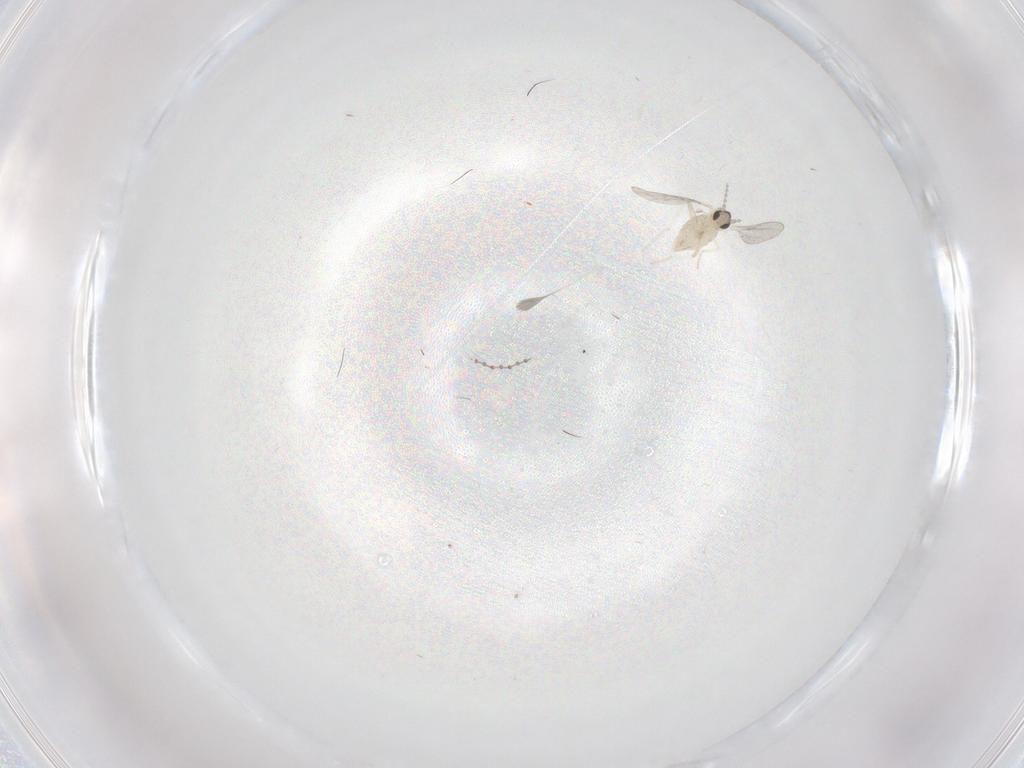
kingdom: Animalia
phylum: Arthropoda
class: Insecta
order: Diptera
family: Cecidomyiidae
